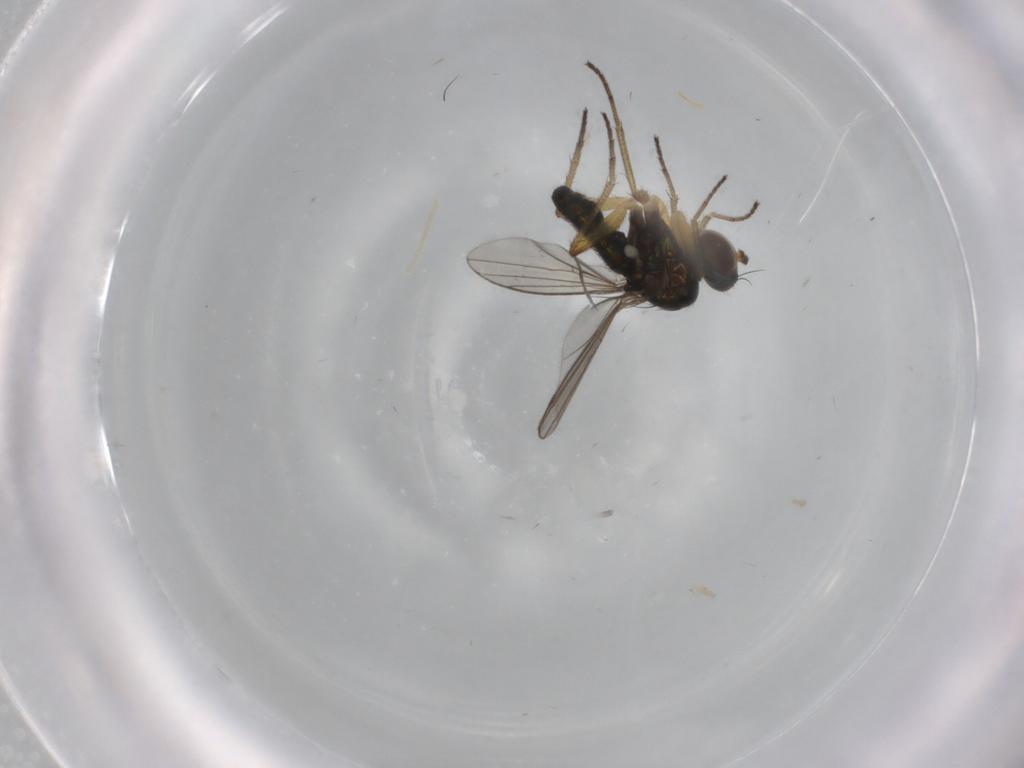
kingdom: Animalia
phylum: Arthropoda
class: Insecta
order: Diptera
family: Dolichopodidae
